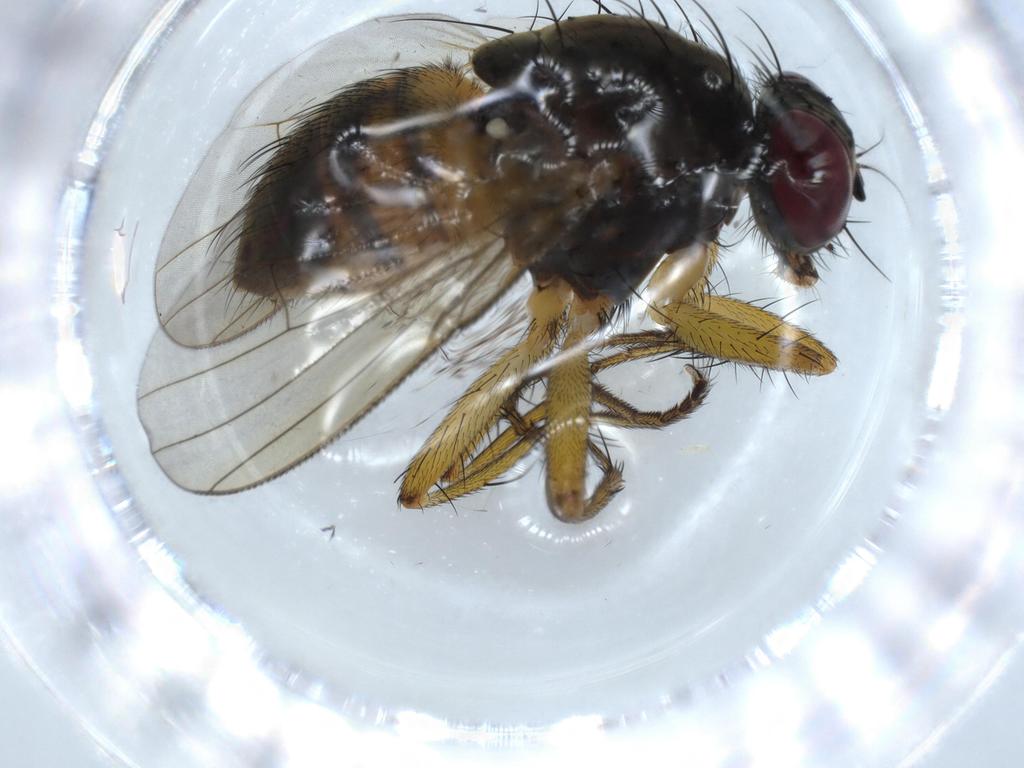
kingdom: Animalia
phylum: Arthropoda
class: Insecta
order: Diptera
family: Muscidae
